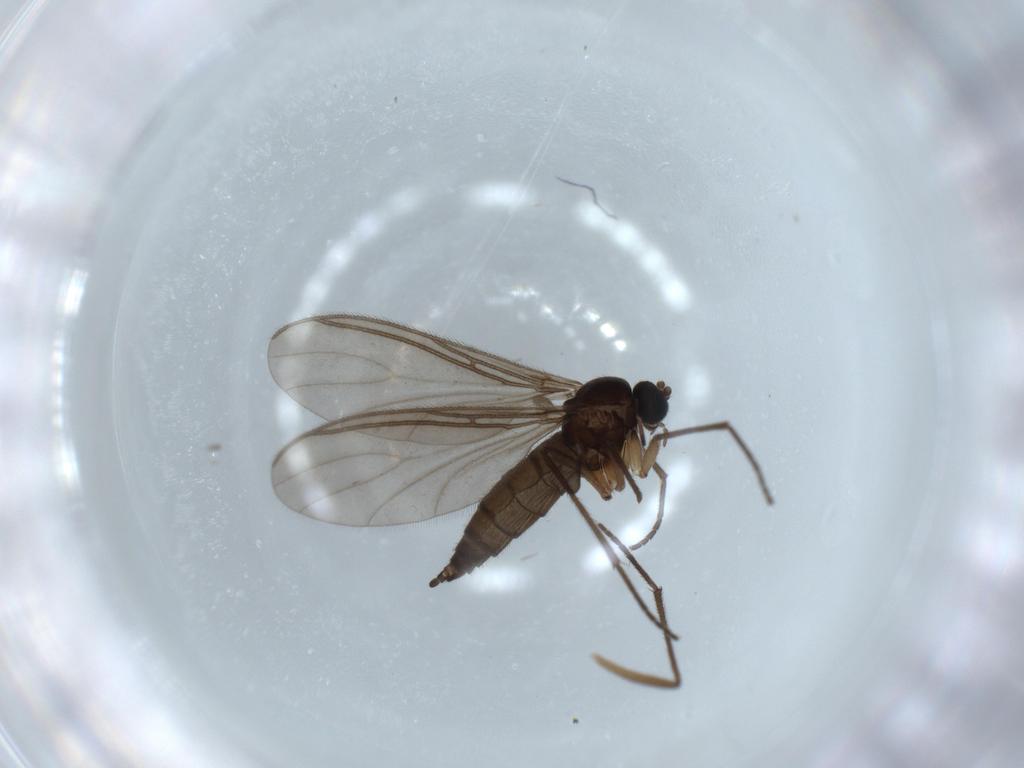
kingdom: Animalia
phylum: Arthropoda
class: Insecta
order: Diptera
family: Sciaridae
